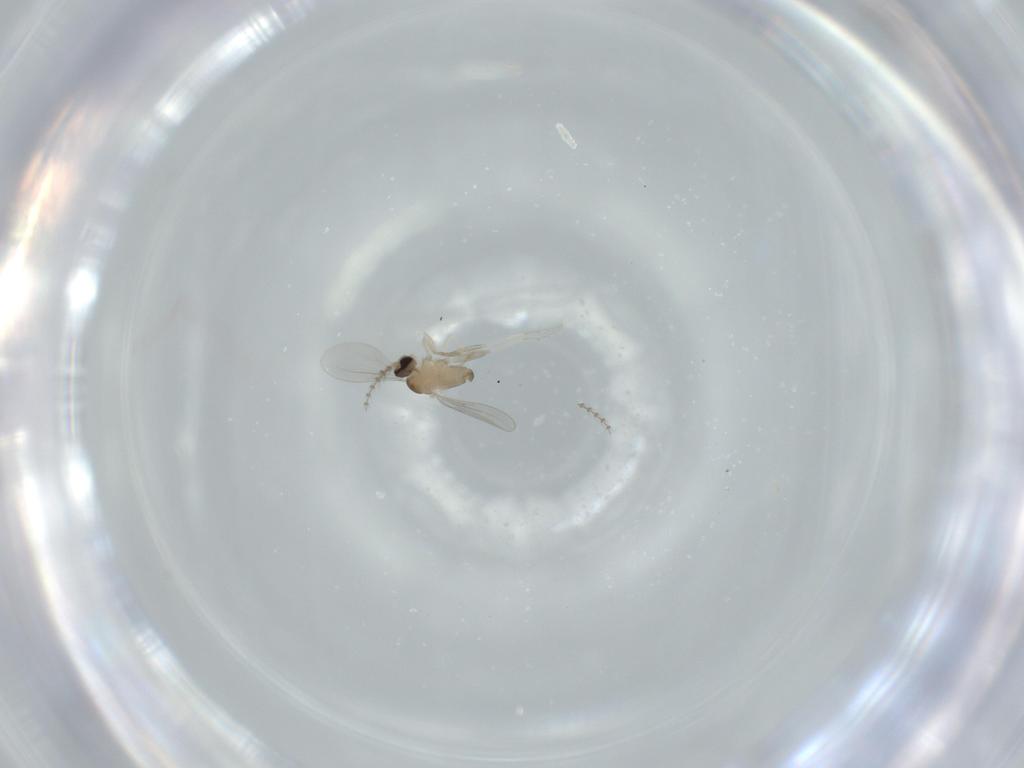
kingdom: Animalia
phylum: Arthropoda
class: Insecta
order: Diptera
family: Cecidomyiidae
